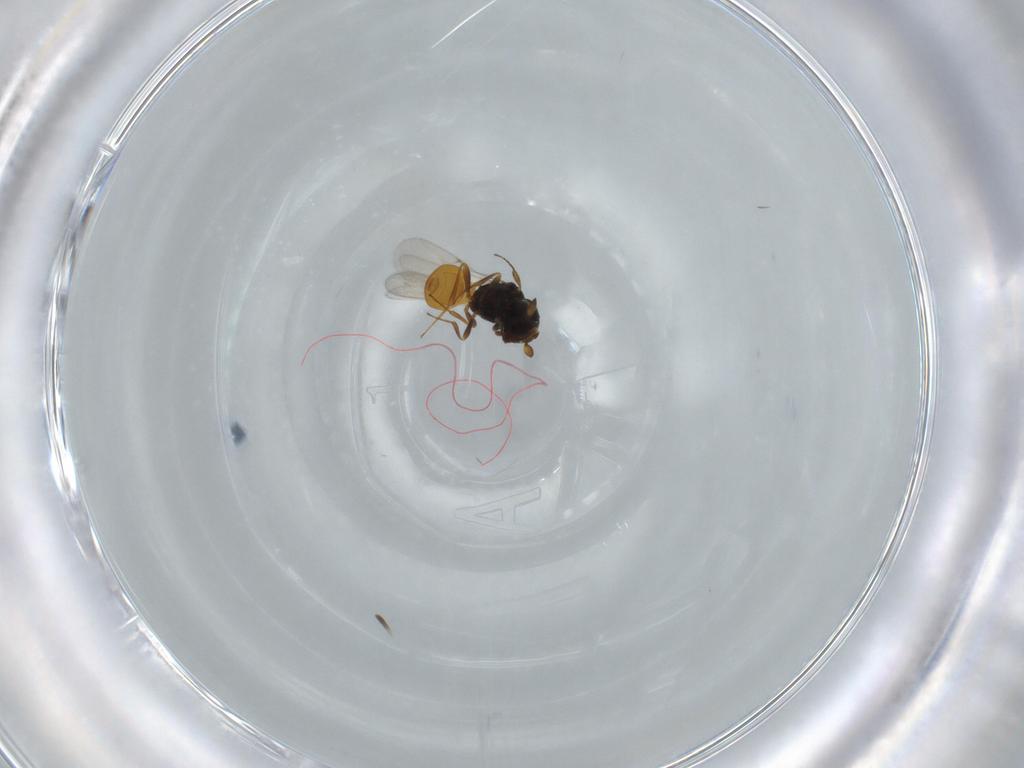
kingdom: Animalia
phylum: Arthropoda
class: Insecta
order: Hymenoptera
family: Scelionidae
